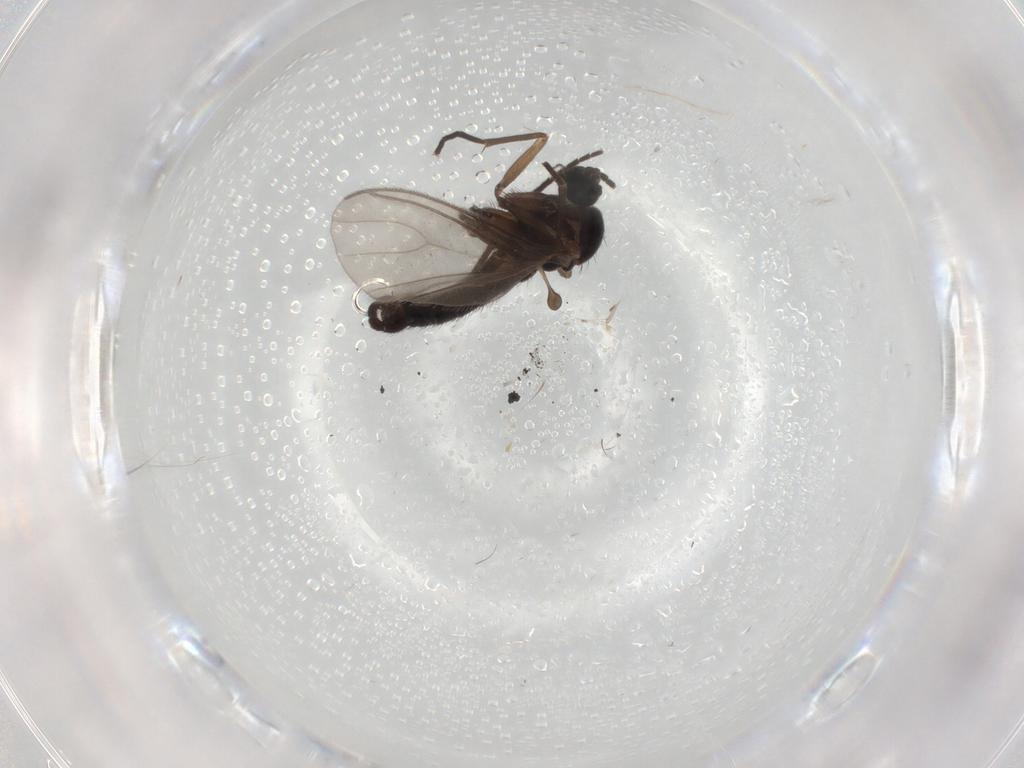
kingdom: Animalia
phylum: Arthropoda
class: Insecta
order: Diptera
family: Sciaridae
